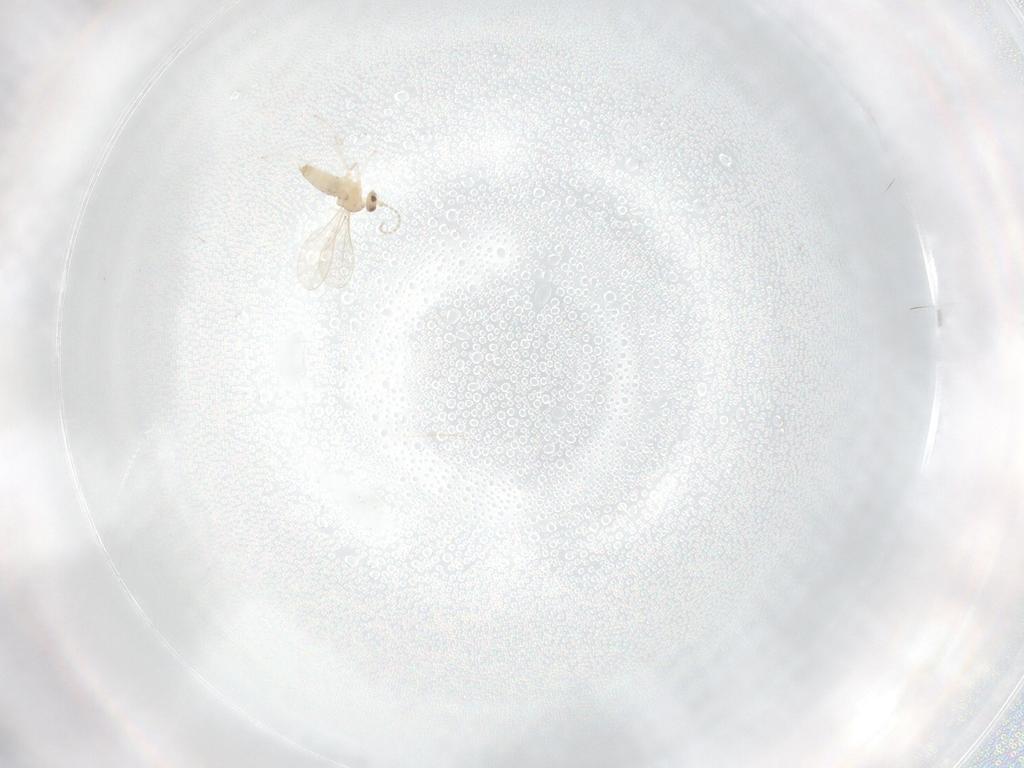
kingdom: Animalia
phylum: Arthropoda
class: Insecta
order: Diptera
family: Cecidomyiidae
